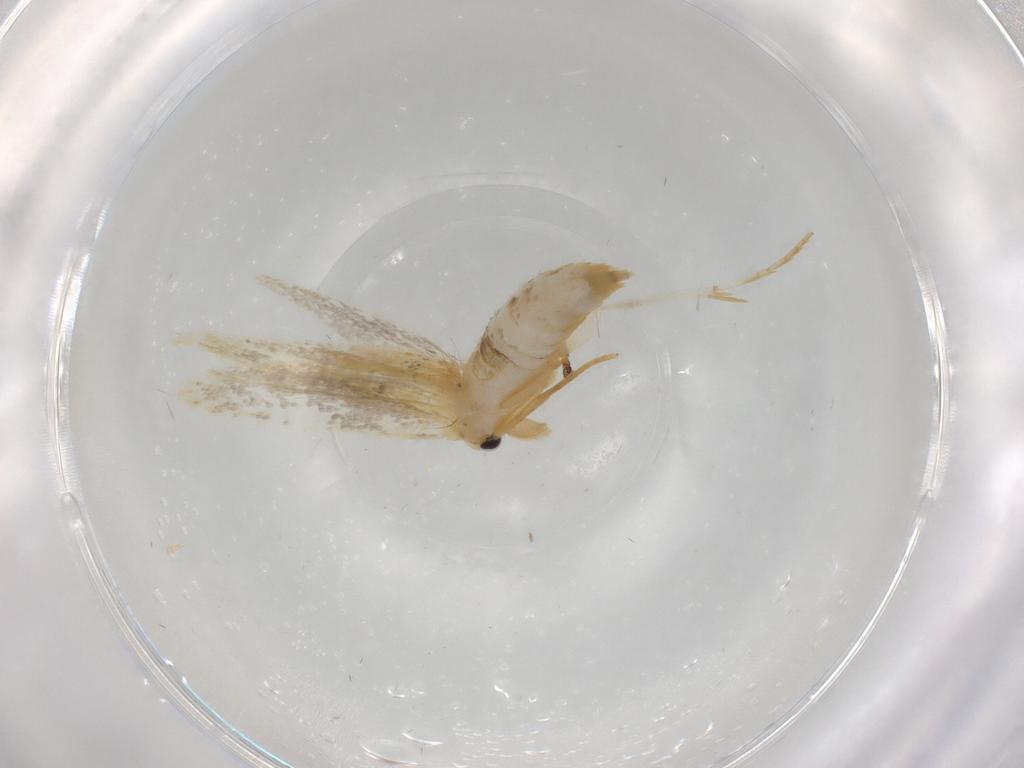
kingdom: Animalia
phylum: Arthropoda
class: Insecta
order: Lepidoptera
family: Tineidae
